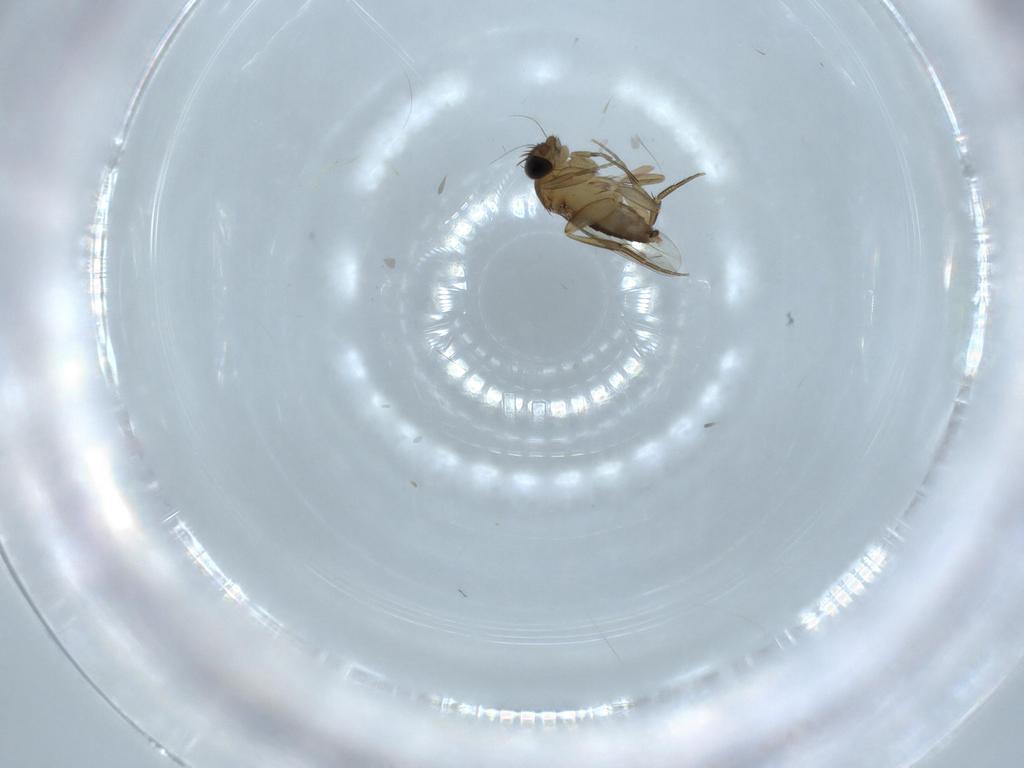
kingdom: Animalia
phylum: Arthropoda
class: Insecta
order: Diptera
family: Phoridae
